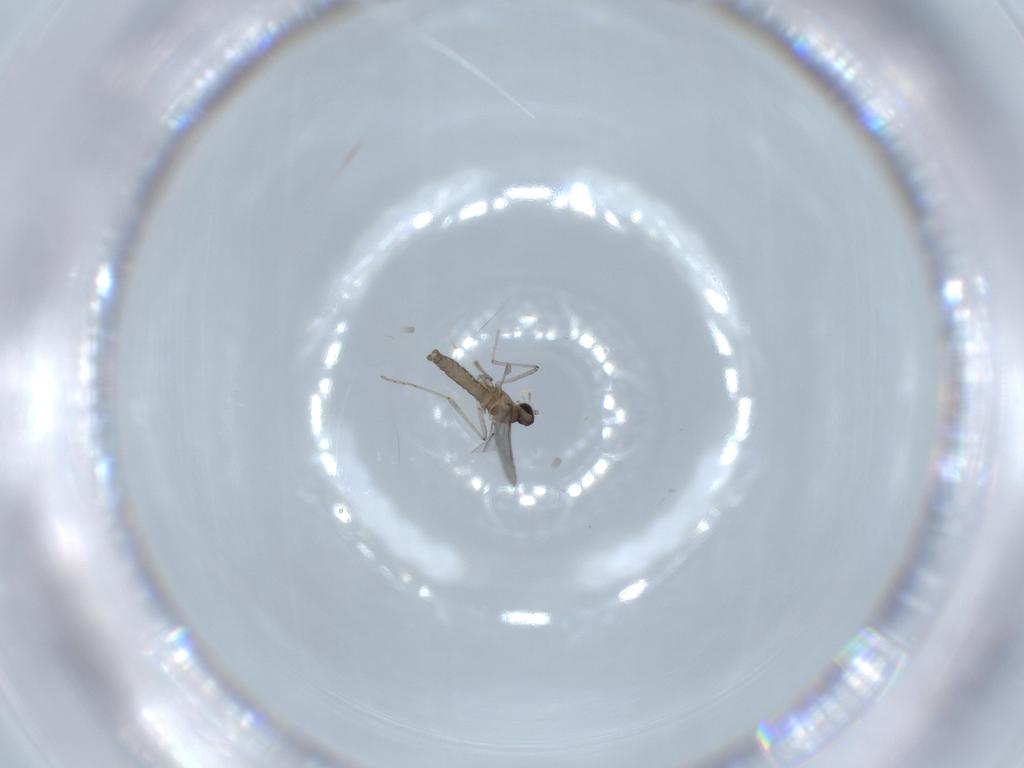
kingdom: Animalia
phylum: Arthropoda
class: Insecta
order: Diptera
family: Cecidomyiidae
